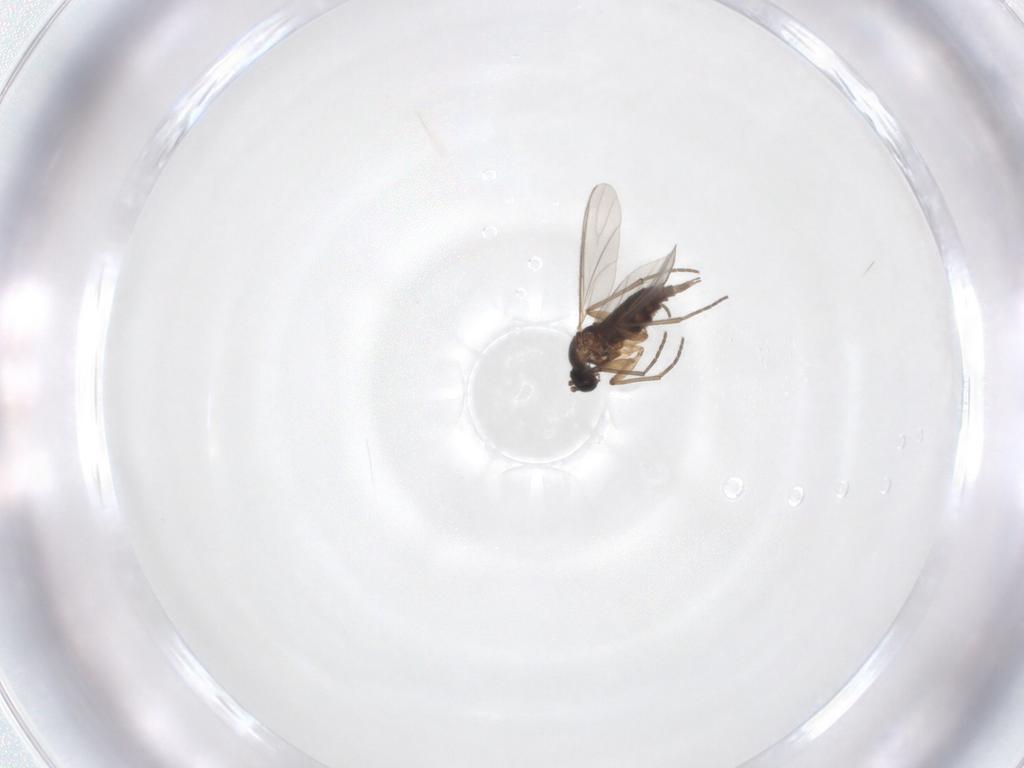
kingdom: Animalia
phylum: Arthropoda
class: Insecta
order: Diptera
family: Sciaridae
